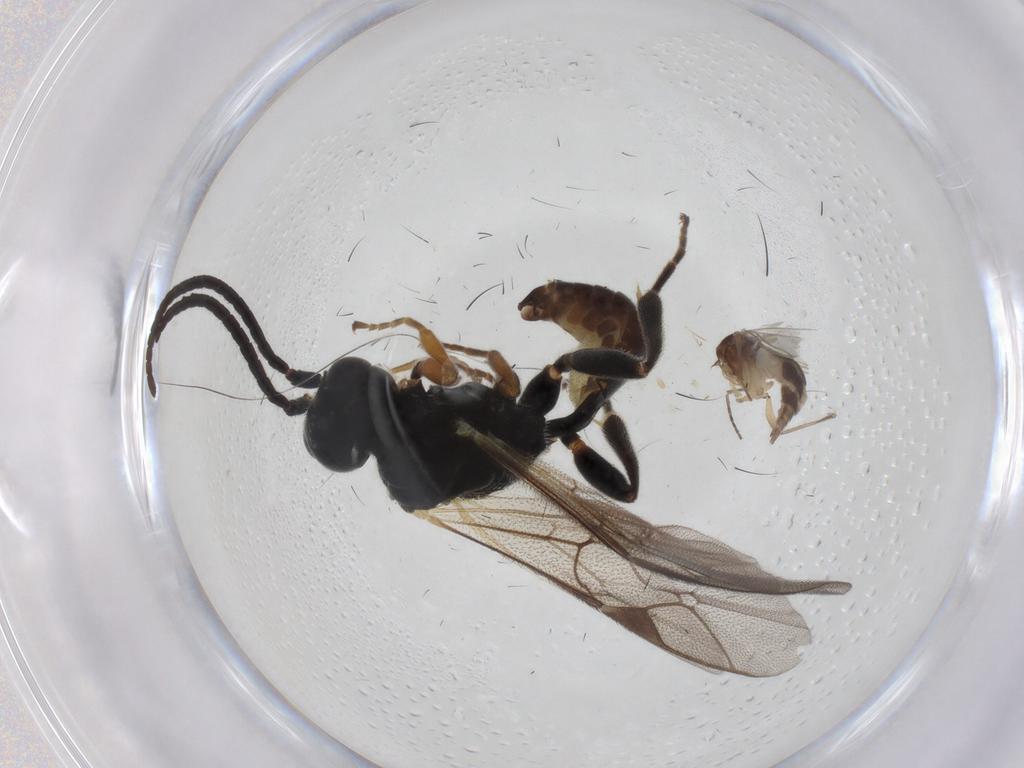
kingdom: Animalia
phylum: Arthropoda
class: Insecta
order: Hymenoptera
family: Ichneumonidae
